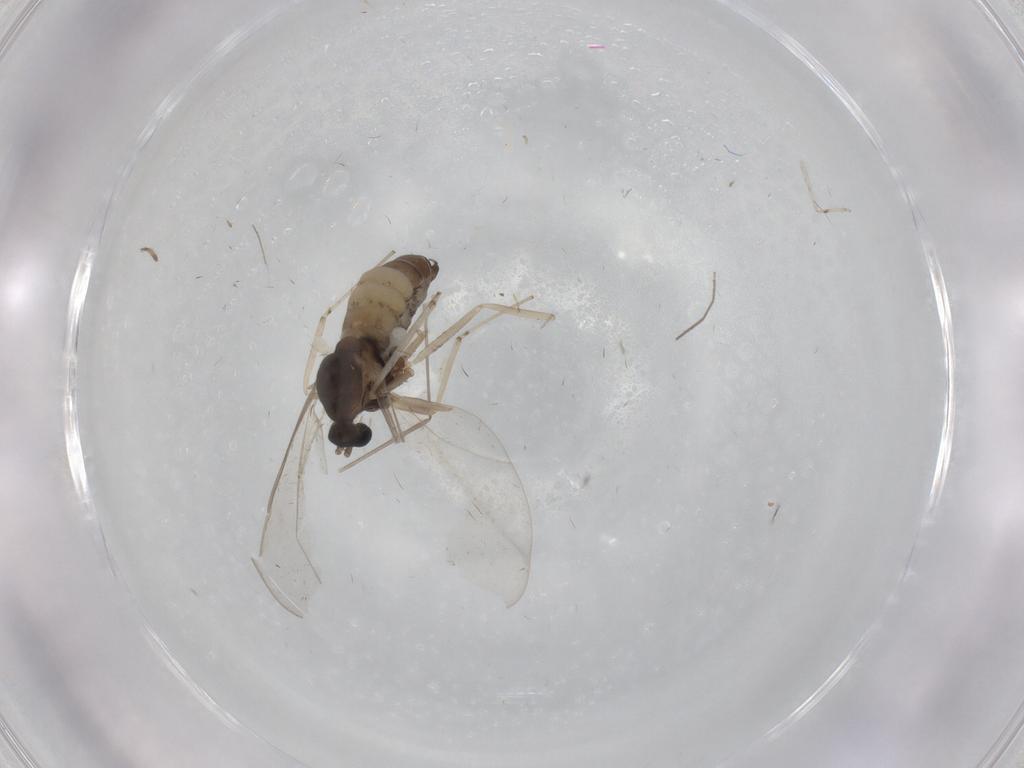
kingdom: Animalia
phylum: Arthropoda
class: Insecta
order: Diptera
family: Cecidomyiidae
